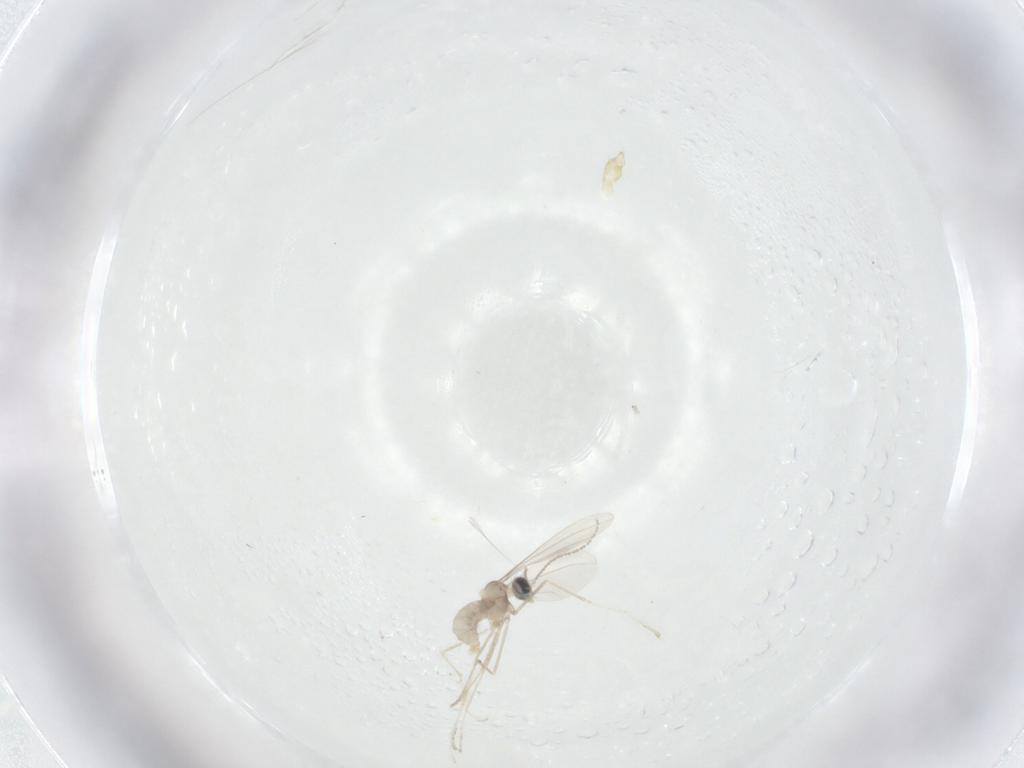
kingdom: Animalia
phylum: Arthropoda
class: Insecta
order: Diptera
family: Cecidomyiidae
